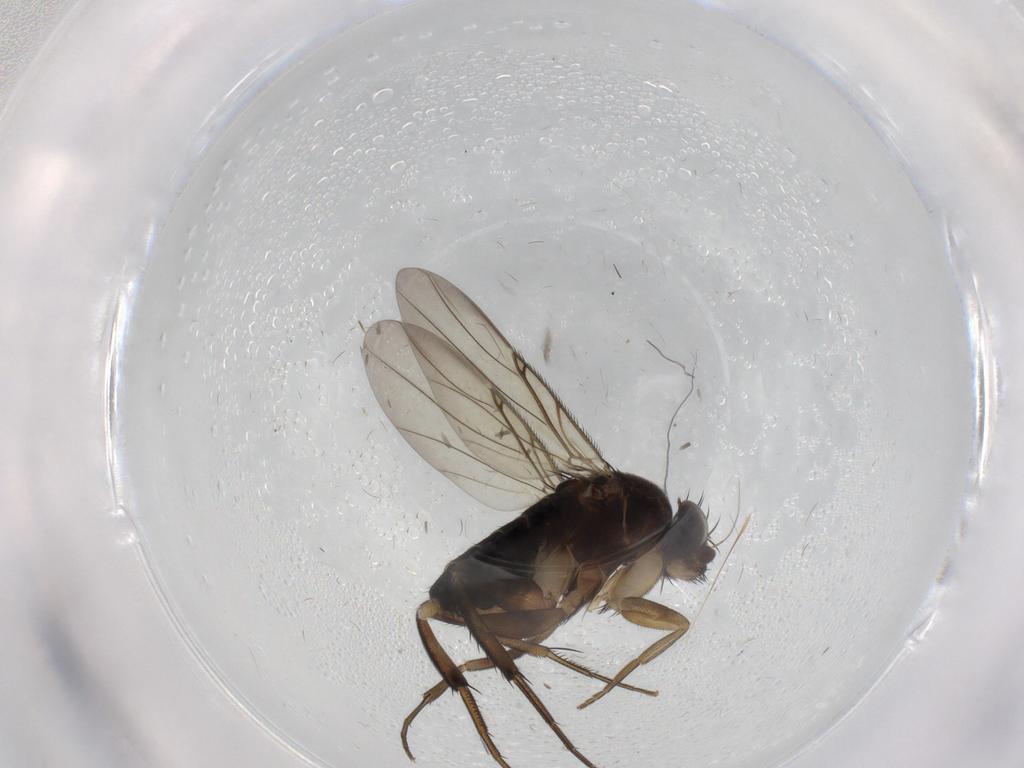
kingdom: Animalia
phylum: Arthropoda
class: Insecta
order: Diptera
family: Phoridae
